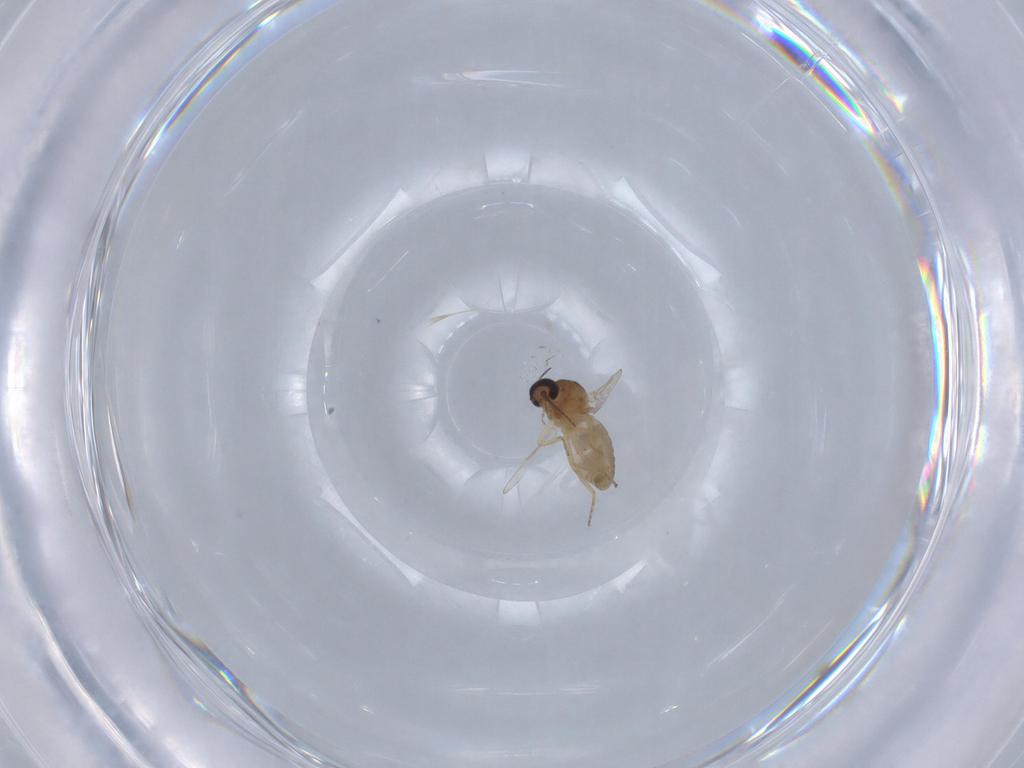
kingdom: Animalia
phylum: Arthropoda
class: Insecta
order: Diptera
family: Ceratopogonidae
